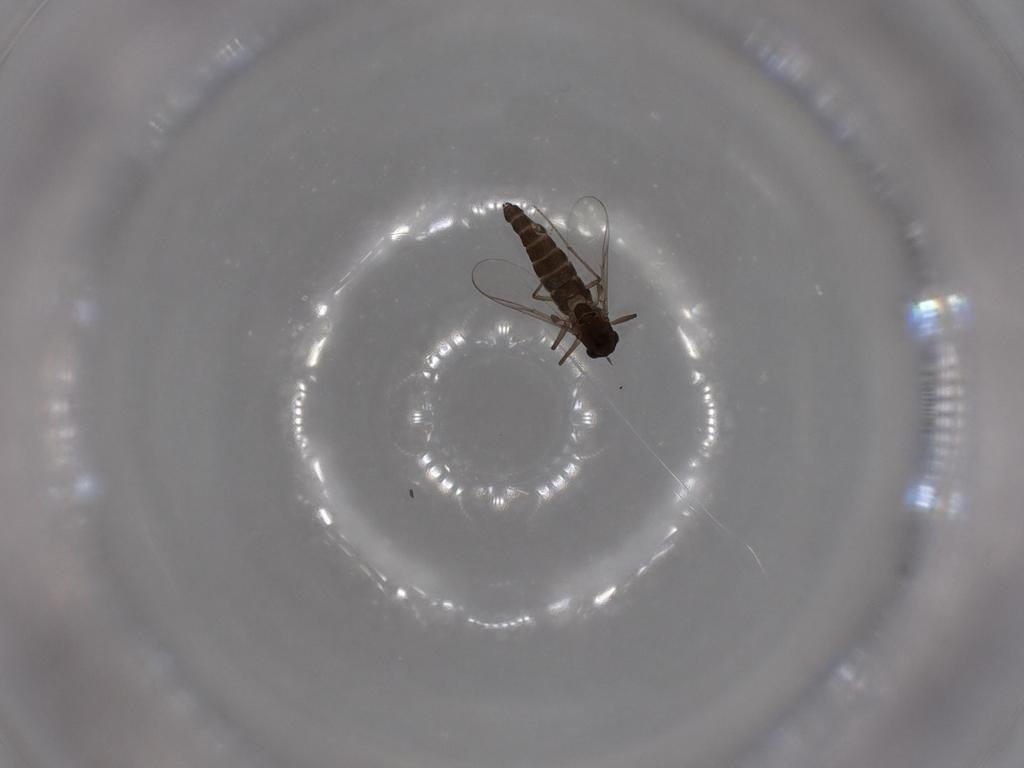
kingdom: Animalia
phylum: Arthropoda
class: Insecta
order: Diptera
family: Chironomidae
